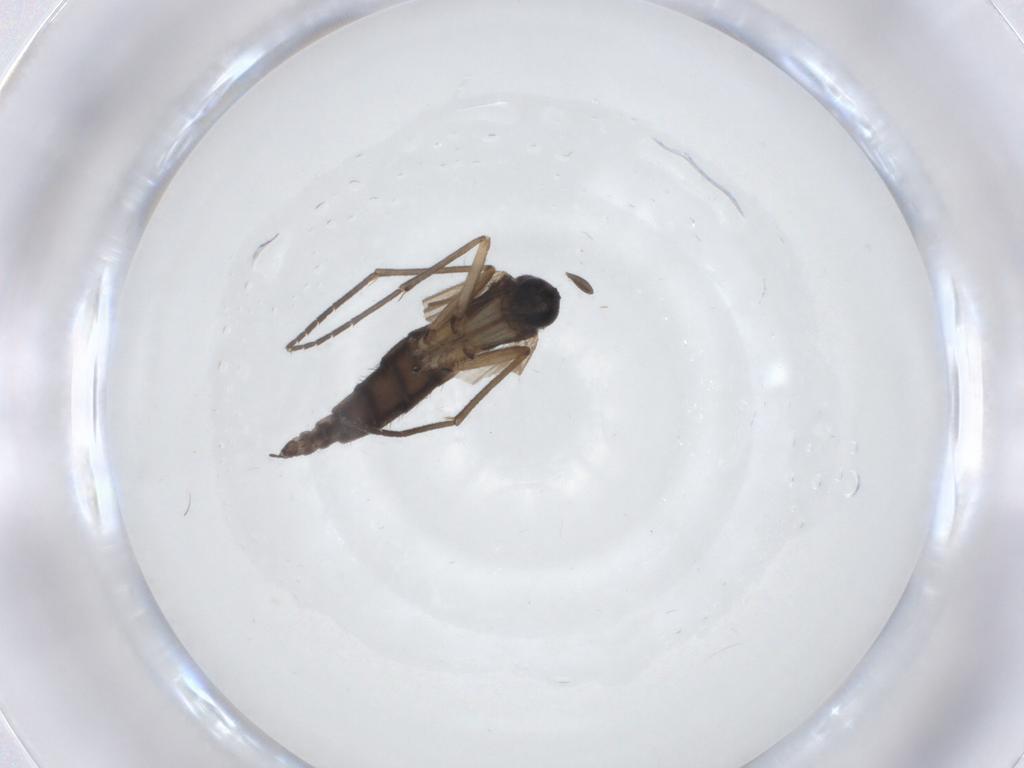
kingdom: Animalia
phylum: Arthropoda
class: Insecta
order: Diptera
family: Sciaridae
